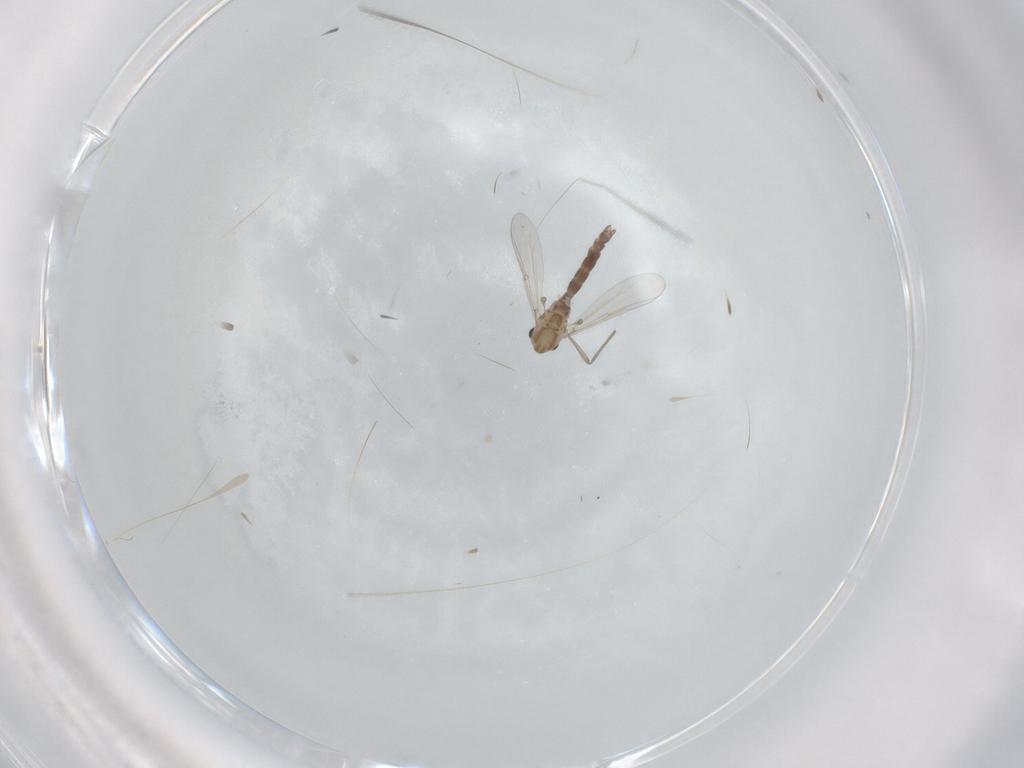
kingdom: Animalia
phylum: Arthropoda
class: Insecta
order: Diptera
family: Chironomidae
